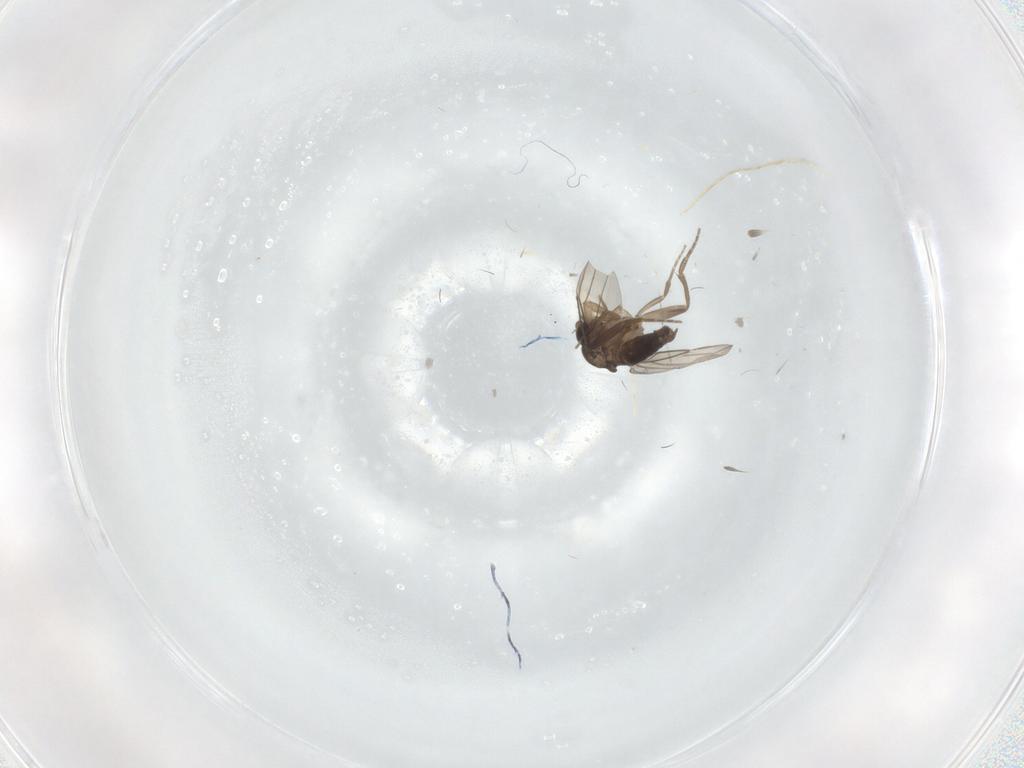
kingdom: Animalia
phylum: Arthropoda
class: Insecta
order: Diptera
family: Phoridae
